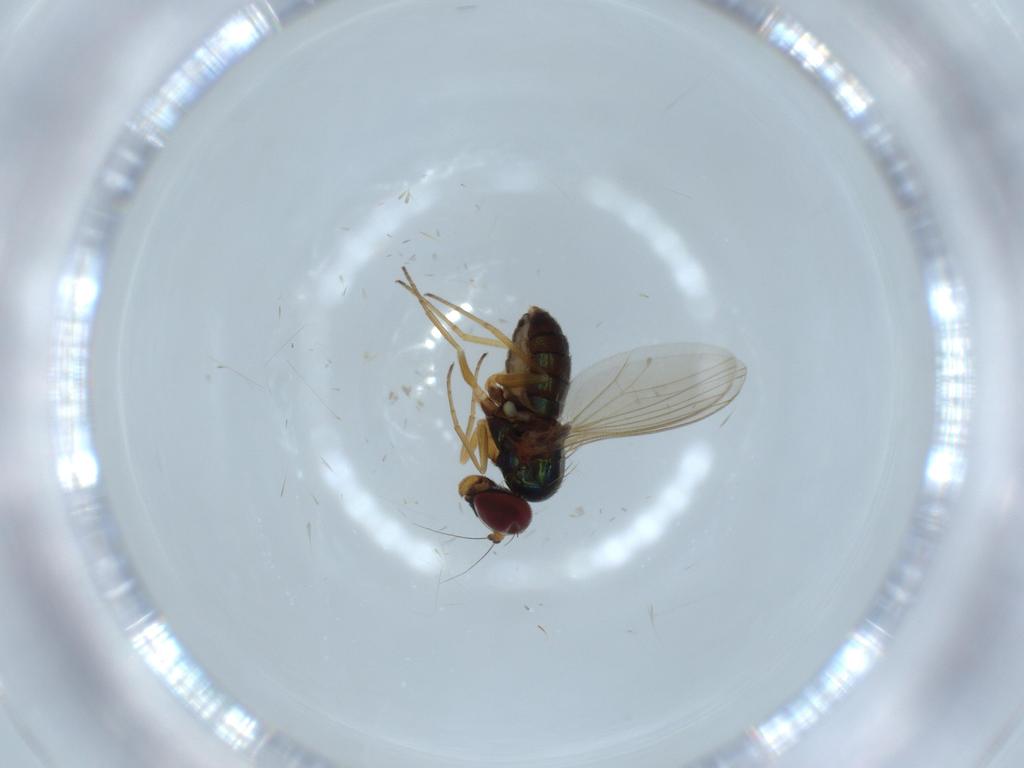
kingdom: Animalia
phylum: Arthropoda
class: Insecta
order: Diptera
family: Dolichopodidae
